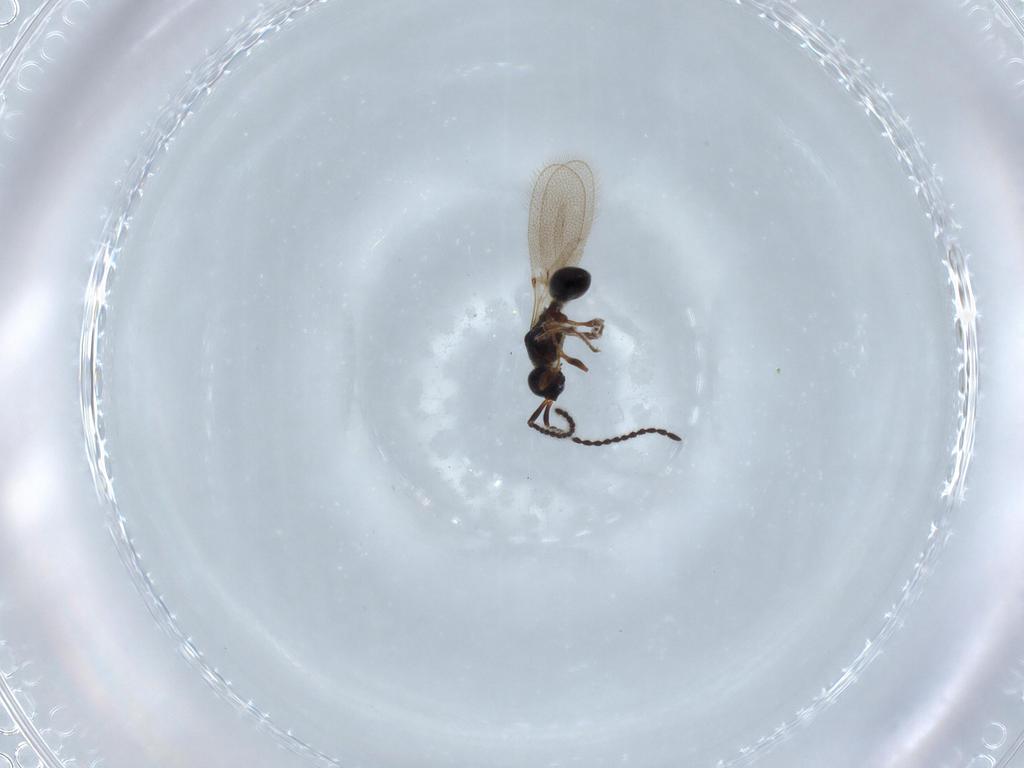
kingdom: Animalia
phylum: Arthropoda
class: Insecta
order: Hymenoptera
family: Diapriidae
